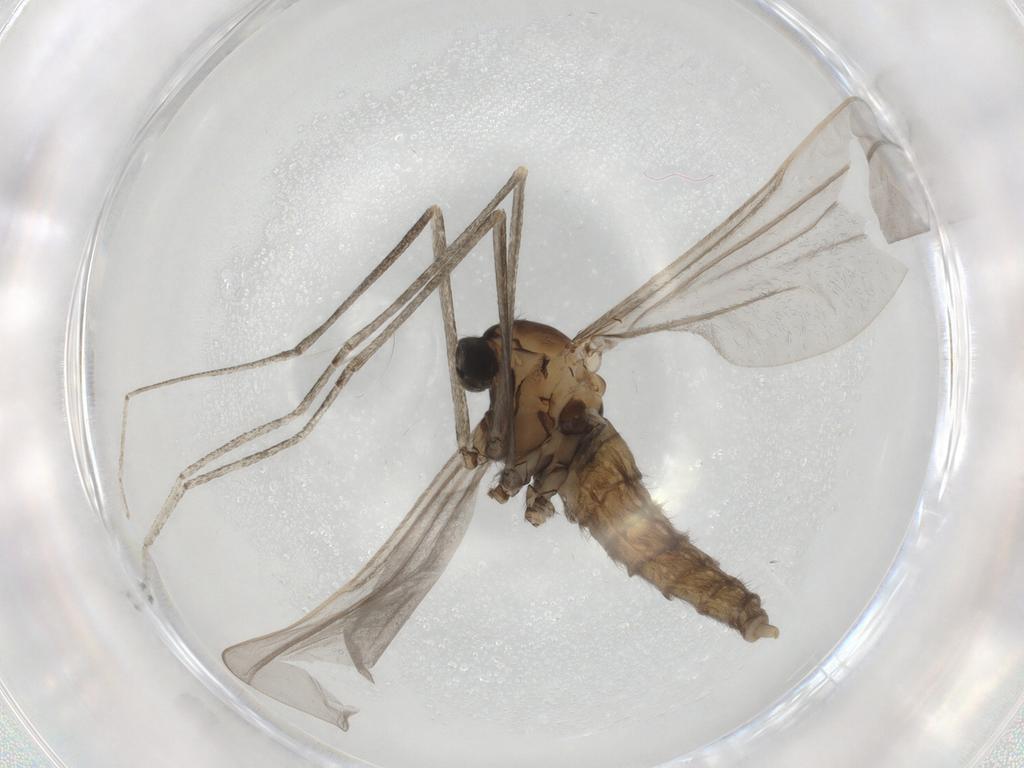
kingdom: Animalia
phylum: Arthropoda
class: Insecta
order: Diptera
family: Cecidomyiidae
